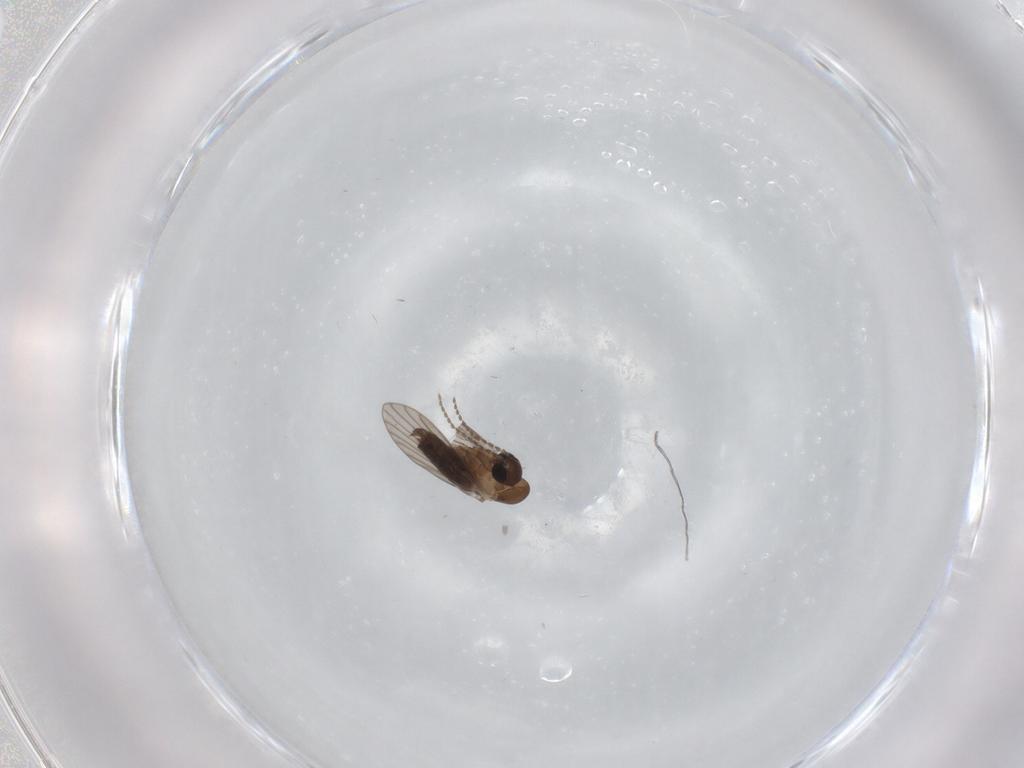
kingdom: Animalia
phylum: Arthropoda
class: Insecta
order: Diptera
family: Psychodidae
